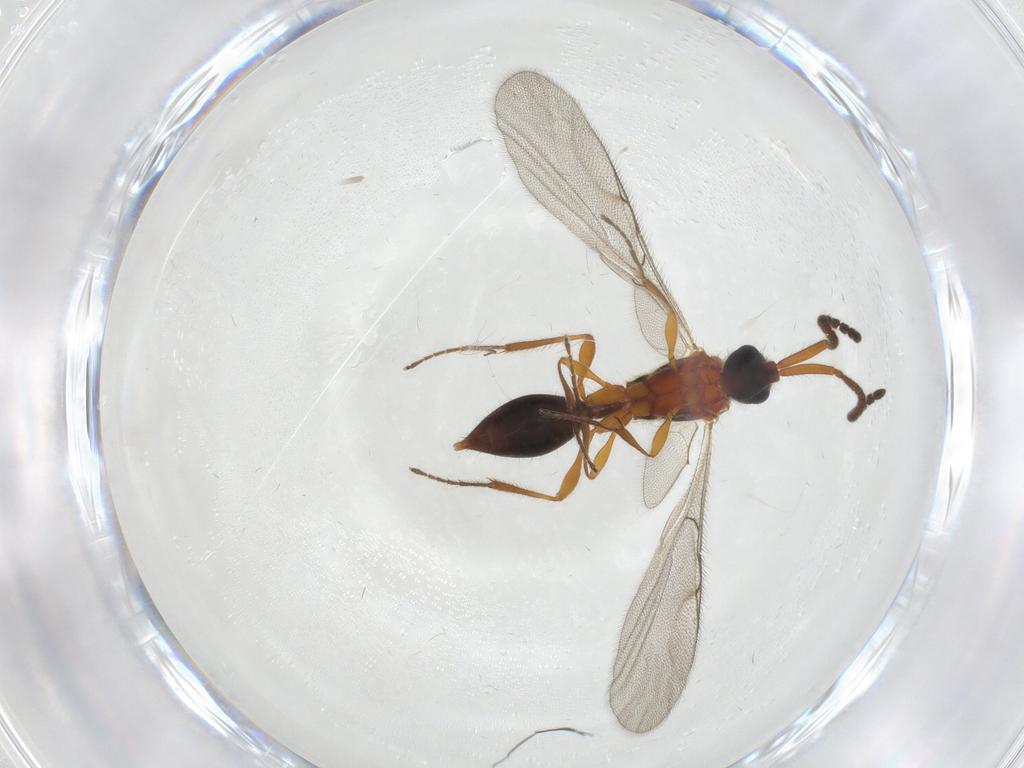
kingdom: Animalia
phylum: Arthropoda
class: Insecta
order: Hymenoptera
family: Diapriidae
